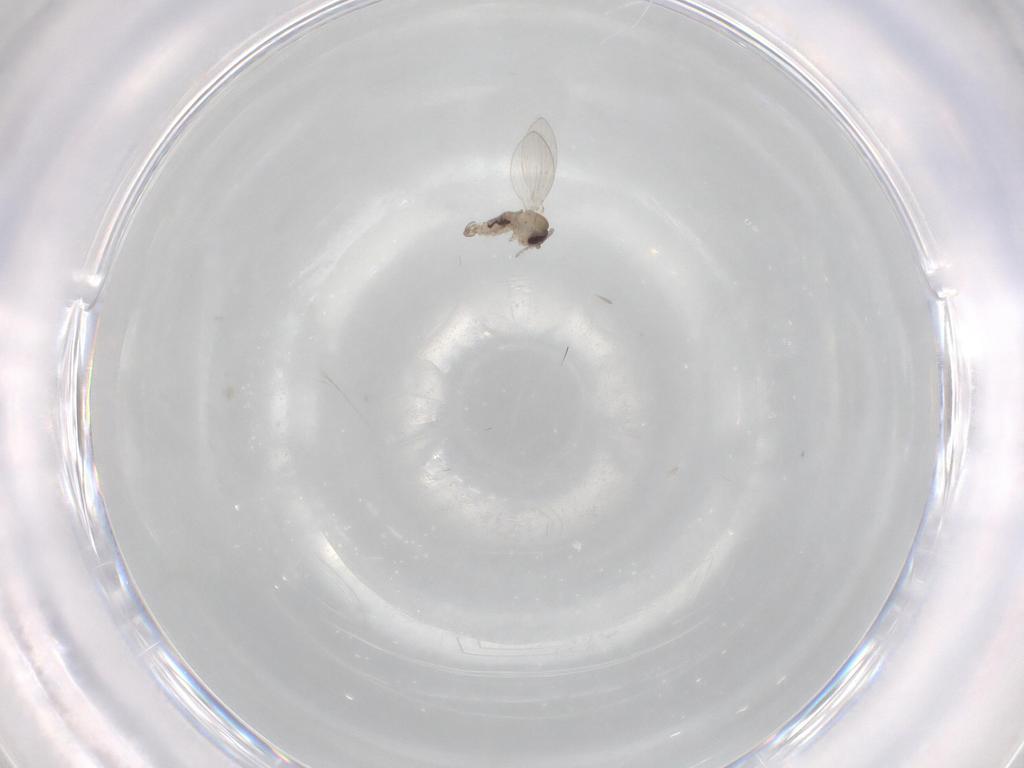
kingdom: Animalia
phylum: Arthropoda
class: Insecta
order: Diptera
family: Psychodidae
